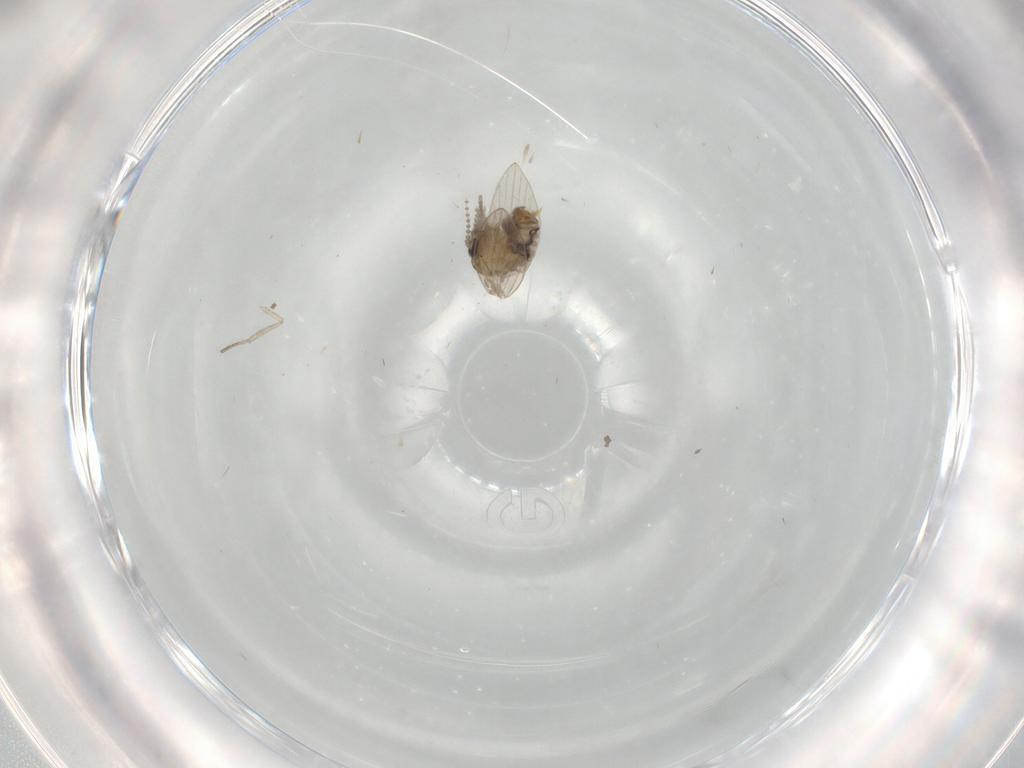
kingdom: Animalia
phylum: Arthropoda
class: Insecta
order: Diptera
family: Psychodidae
